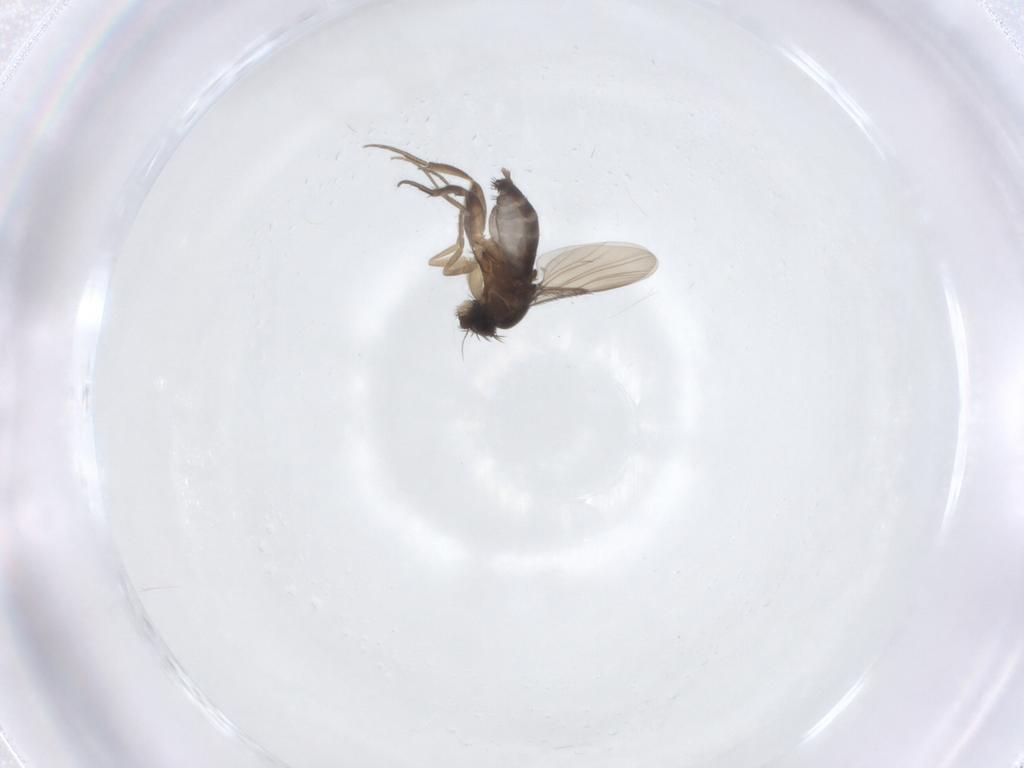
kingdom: Animalia
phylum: Arthropoda
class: Insecta
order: Diptera
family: Phoridae
